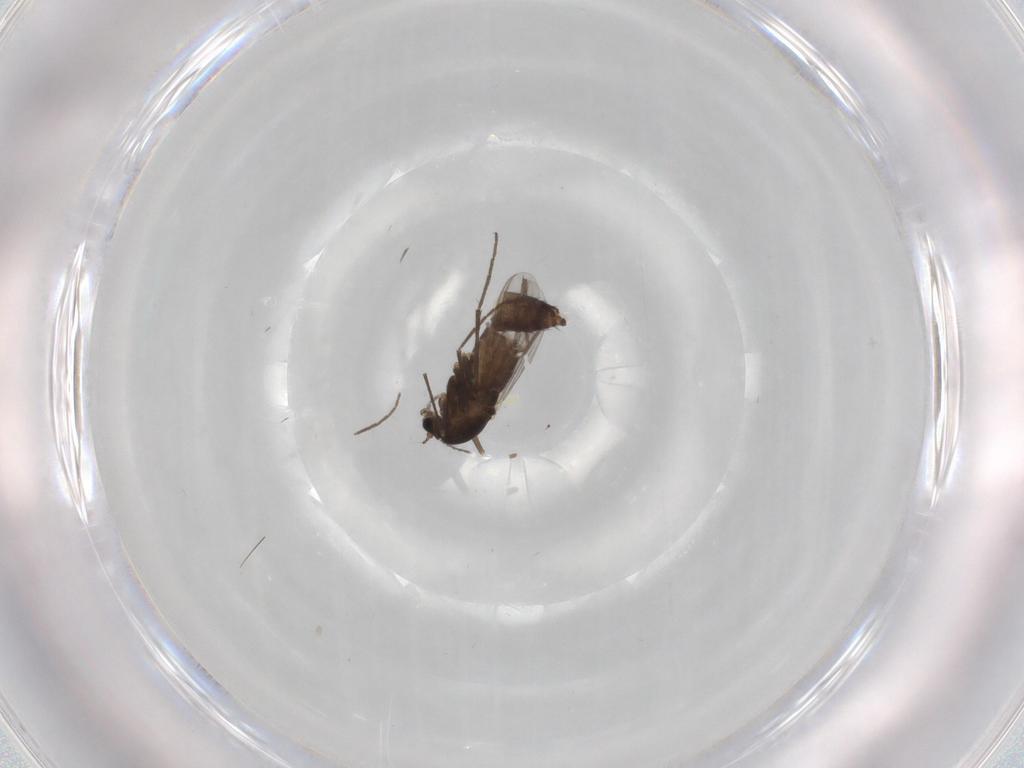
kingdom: Animalia
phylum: Arthropoda
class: Insecta
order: Diptera
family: Chironomidae
